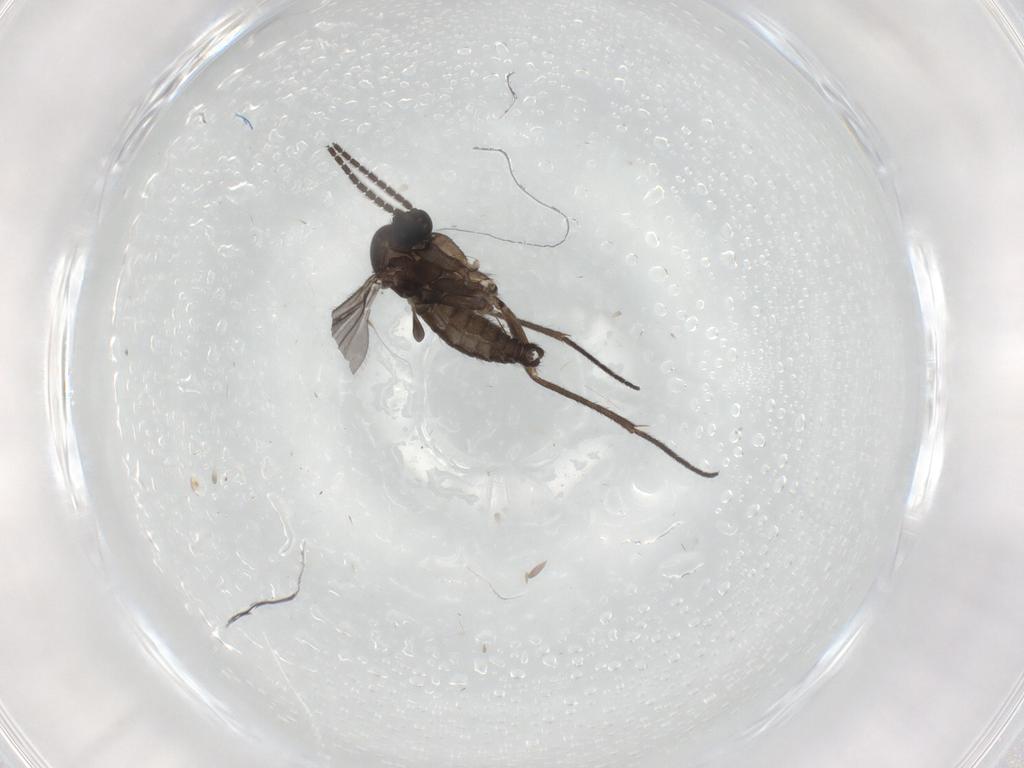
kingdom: Animalia
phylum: Arthropoda
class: Insecta
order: Diptera
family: Sciaridae
